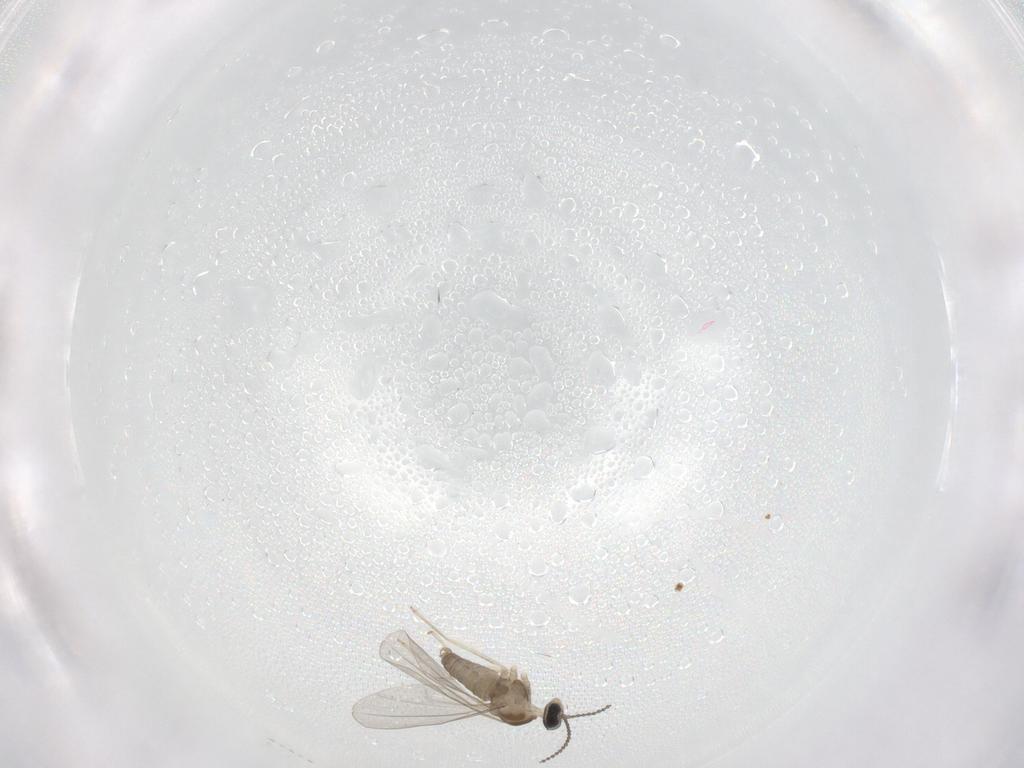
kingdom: Animalia
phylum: Arthropoda
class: Insecta
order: Diptera
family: Cecidomyiidae
